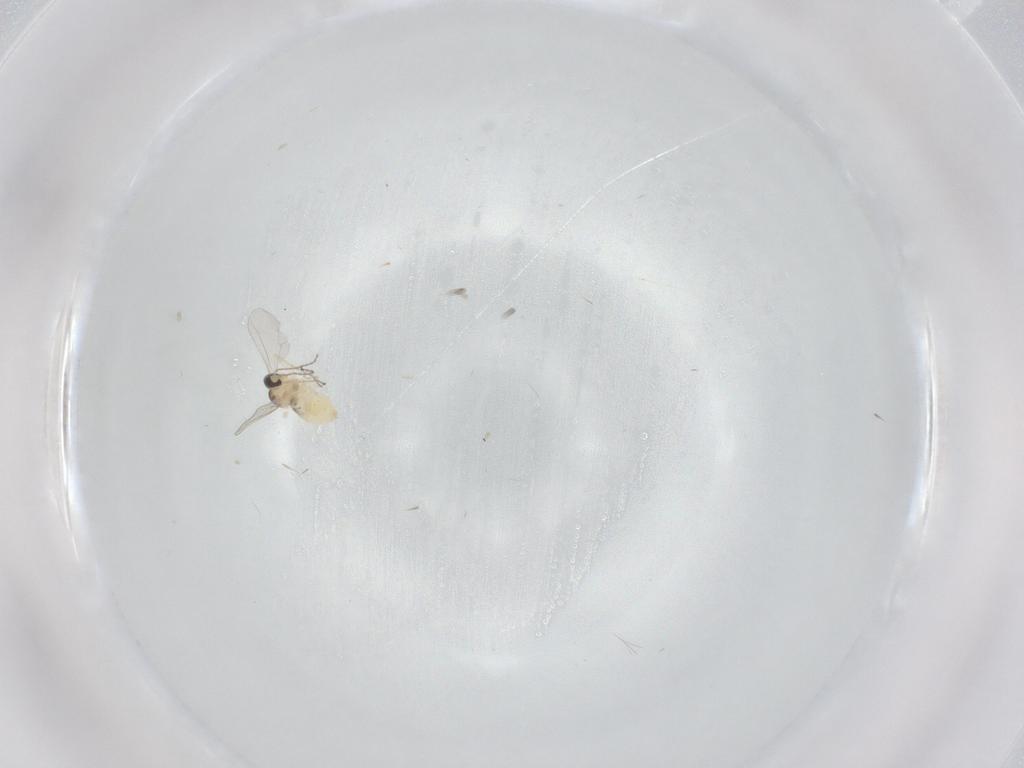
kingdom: Animalia
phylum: Arthropoda
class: Insecta
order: Diptera
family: Cecidomyiidae
